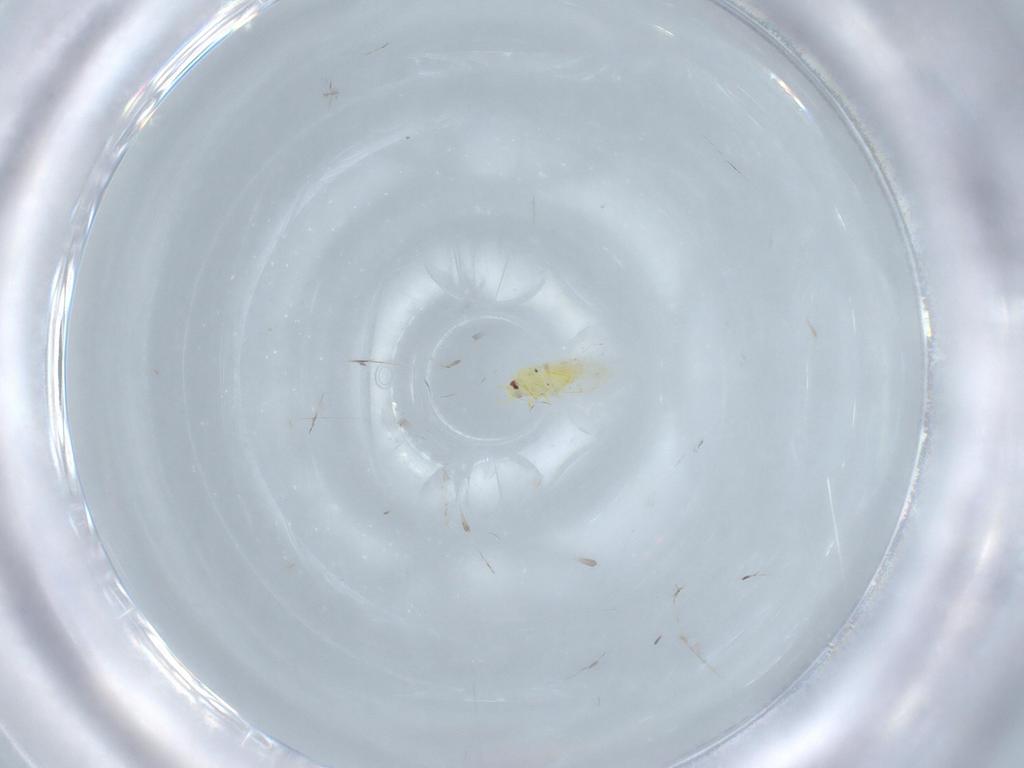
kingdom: Animalia
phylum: Arthropoda
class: Insecta
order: Hemiptera
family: Aleyrodidae
